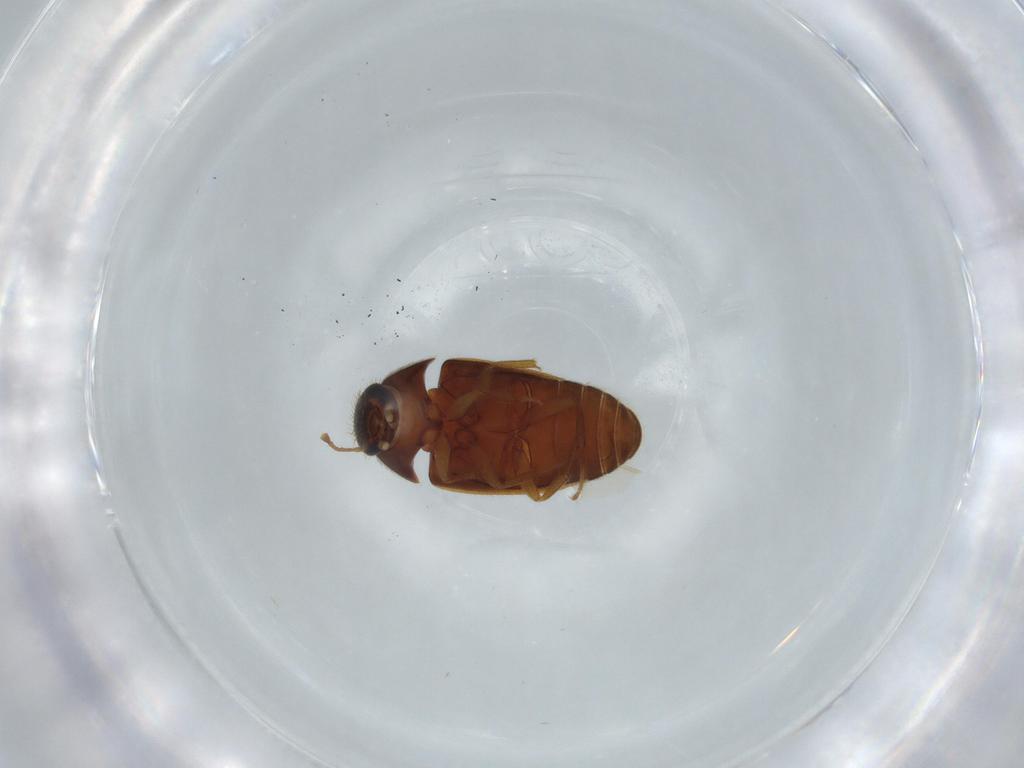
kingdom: Animalia
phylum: Arthropoda
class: Insecta
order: Coleoptera
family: Mycetophagidae
